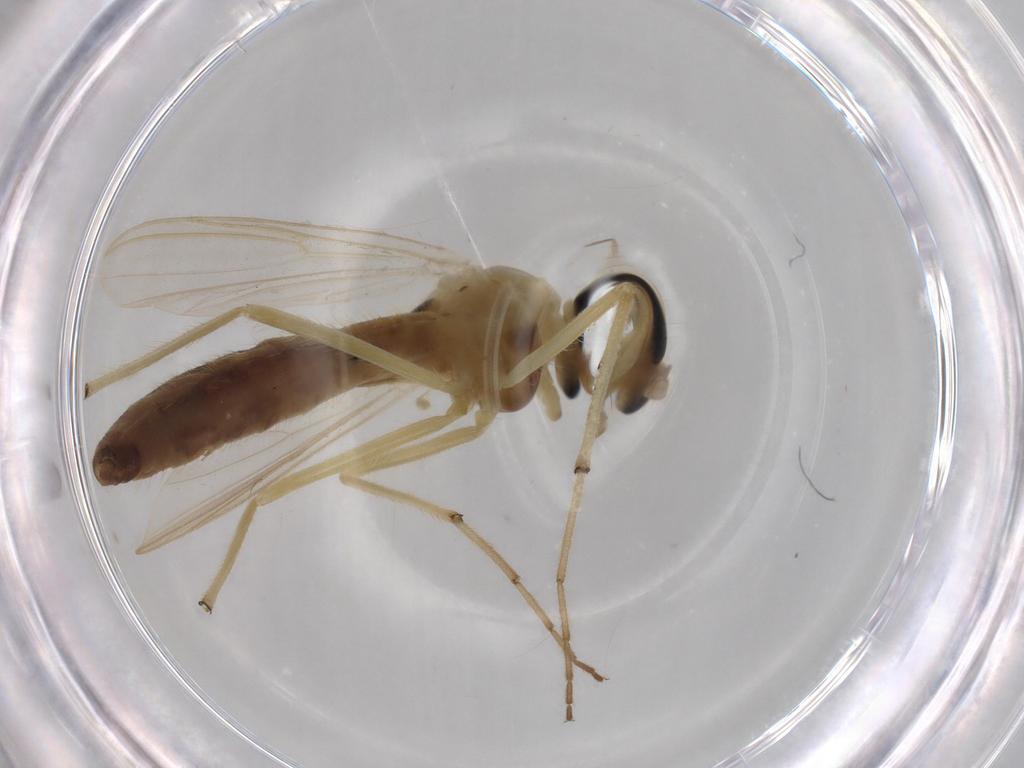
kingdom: Animalia
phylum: Arthropoda
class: Insecta
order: Diptera
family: Chironomidae
